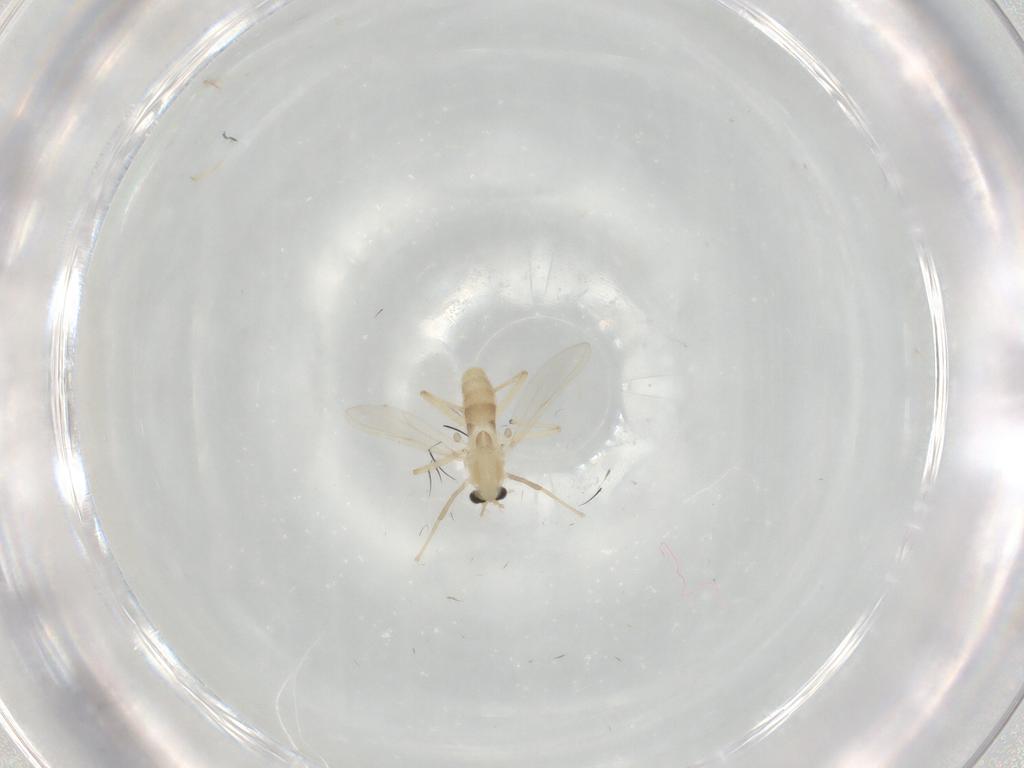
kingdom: Animalia
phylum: Arthropoda
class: Insecta
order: Diptera
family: Chironomidae
